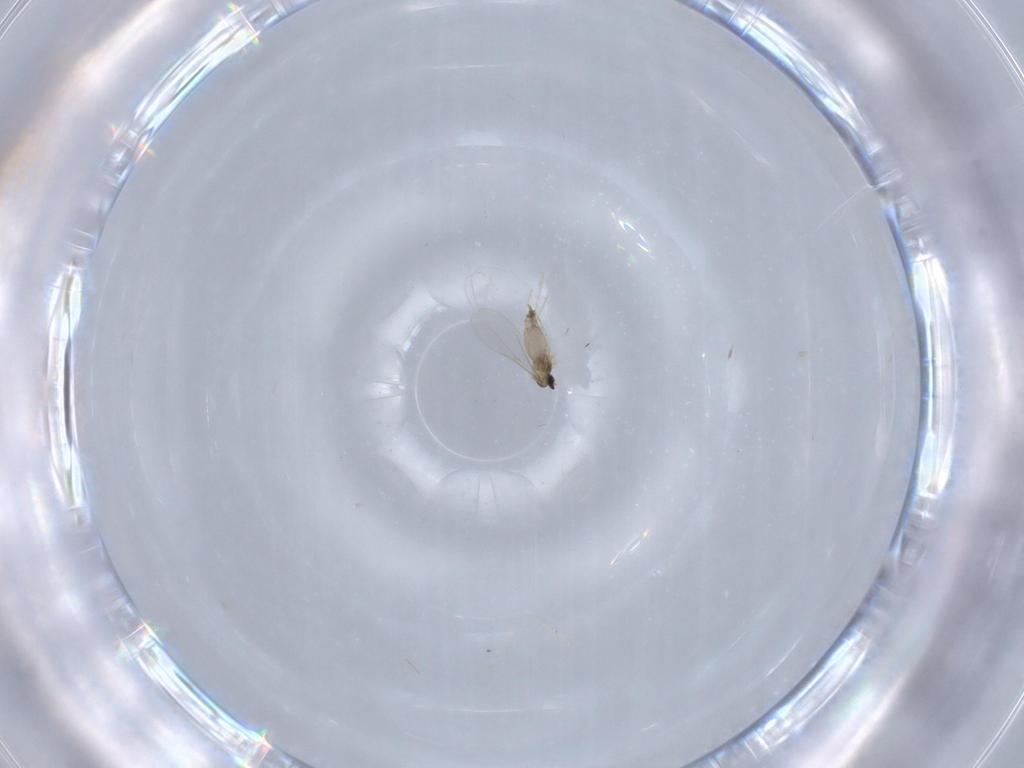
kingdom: Animalia
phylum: Arthropoda
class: Insecta
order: Diptera
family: Cecidomyiidae
